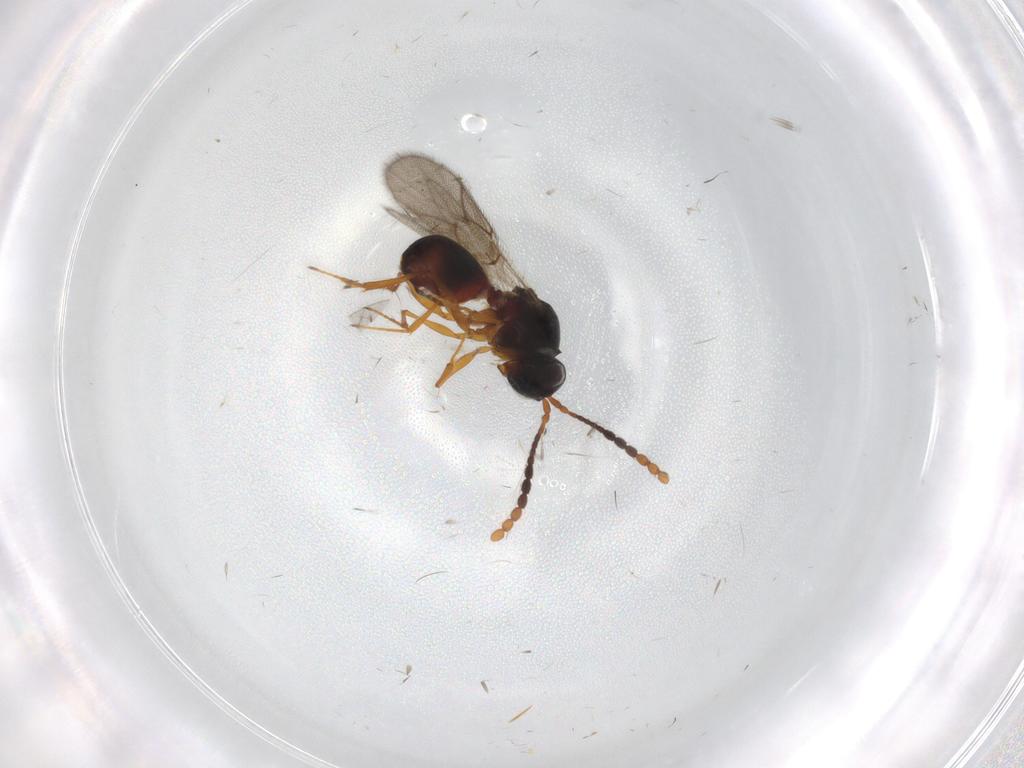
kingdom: Animalia
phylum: Arthropoda
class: Insecta
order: Hymenoptera
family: Figitidae
